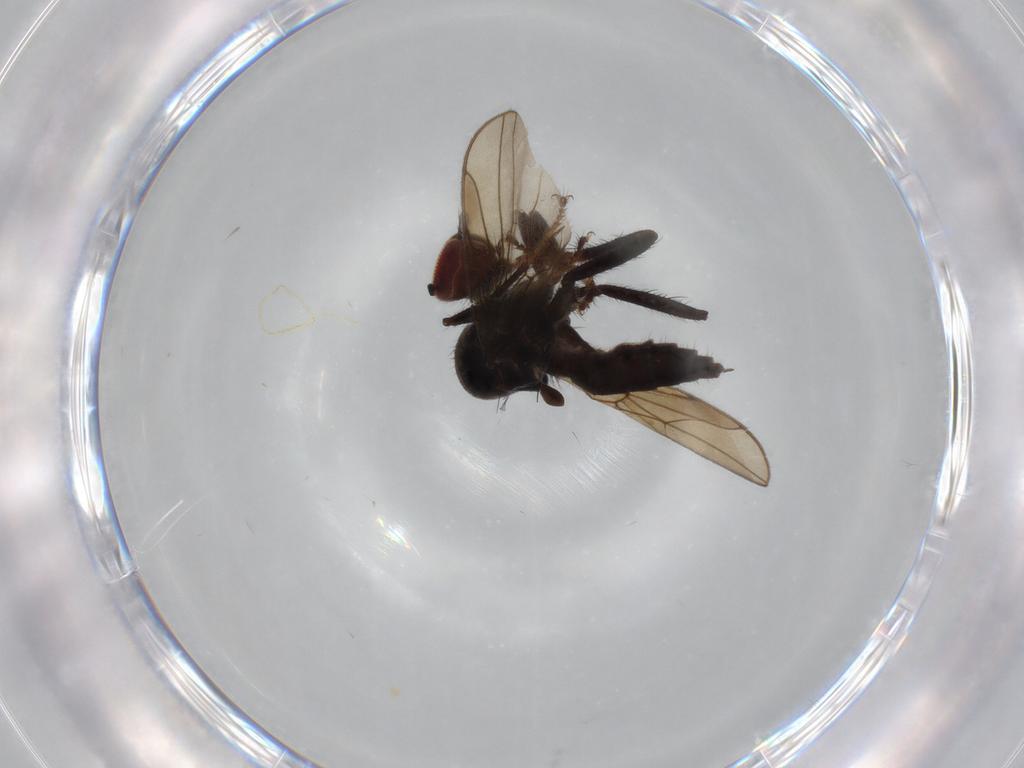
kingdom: Animalia
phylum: Arthropoda
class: Insecta
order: Diptera
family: Hybotidae
